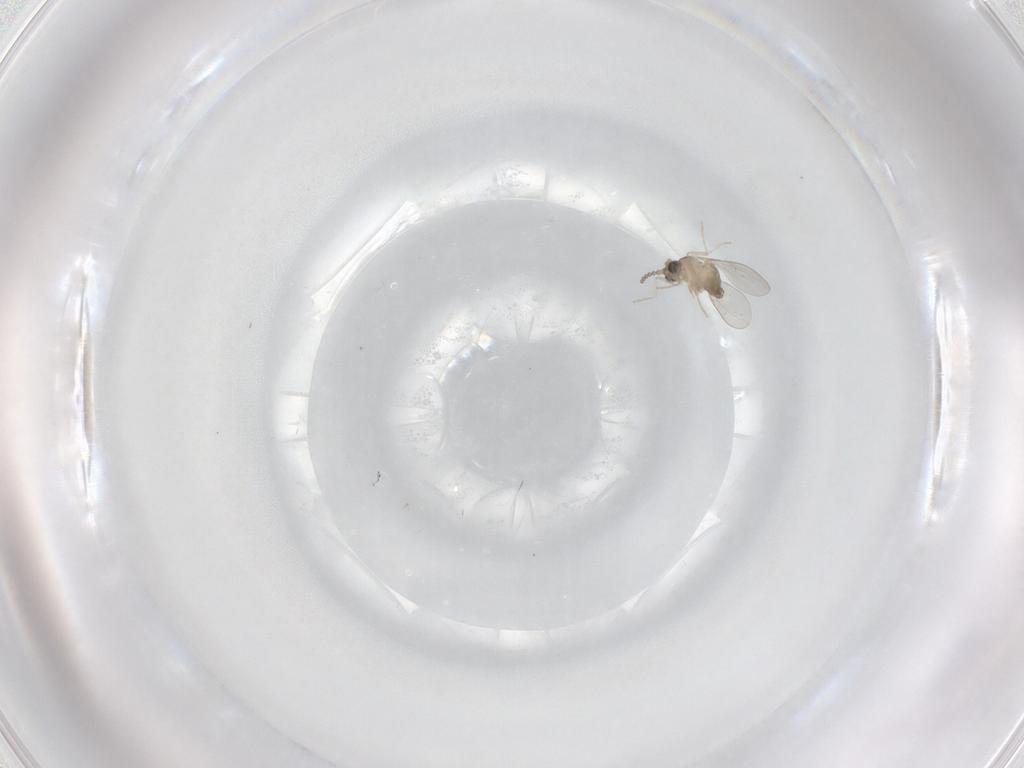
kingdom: Animalia
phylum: Arthropoda
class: Insecta
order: Diptera
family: Cecidomyiidae
